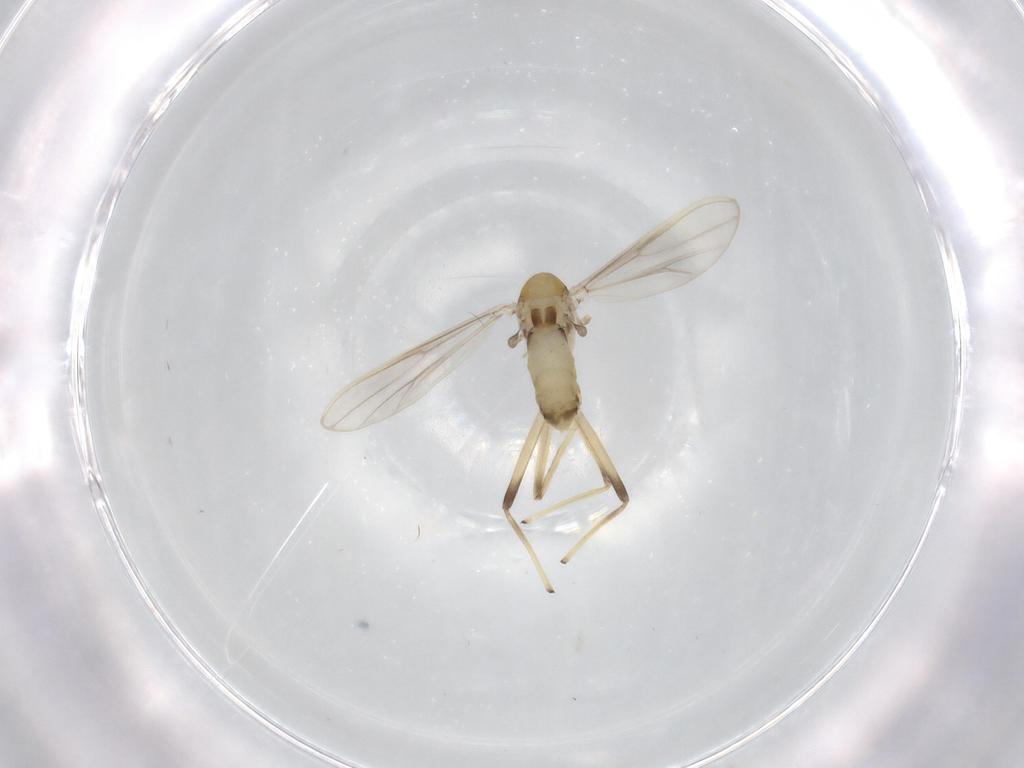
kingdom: Animalia
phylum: Arthropoda
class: Insecta
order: Diptera
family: Chironomidae
